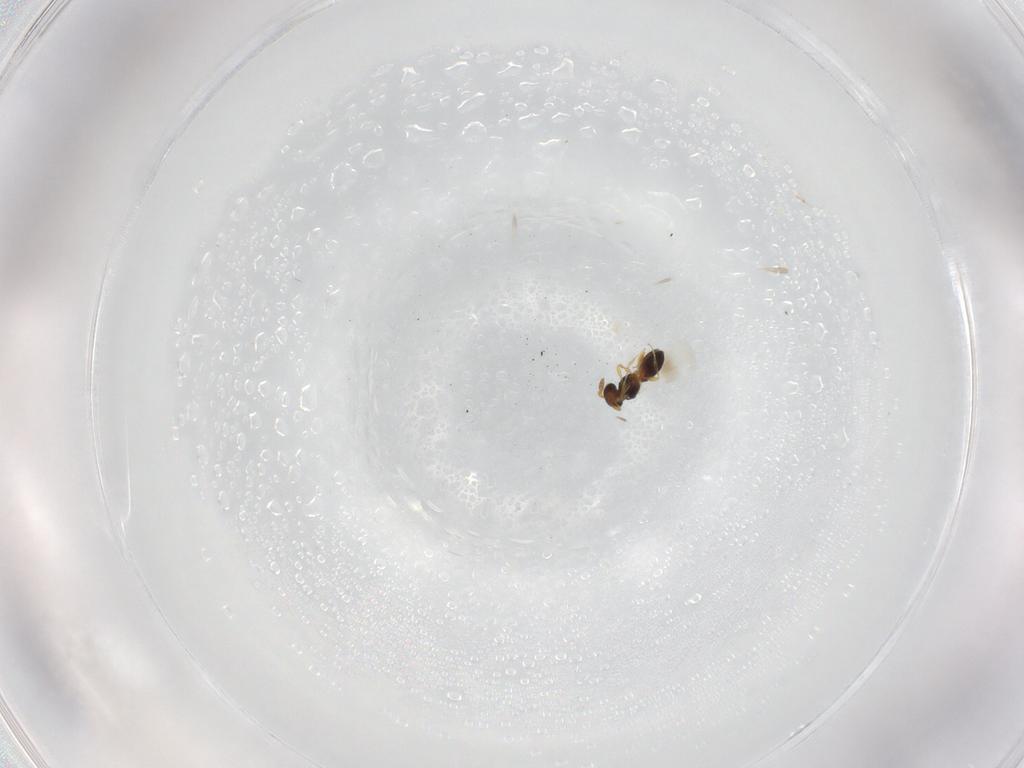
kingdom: Animalia
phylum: Arthropoda
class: Insecta
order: Hymenoptera
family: Platygastridae
